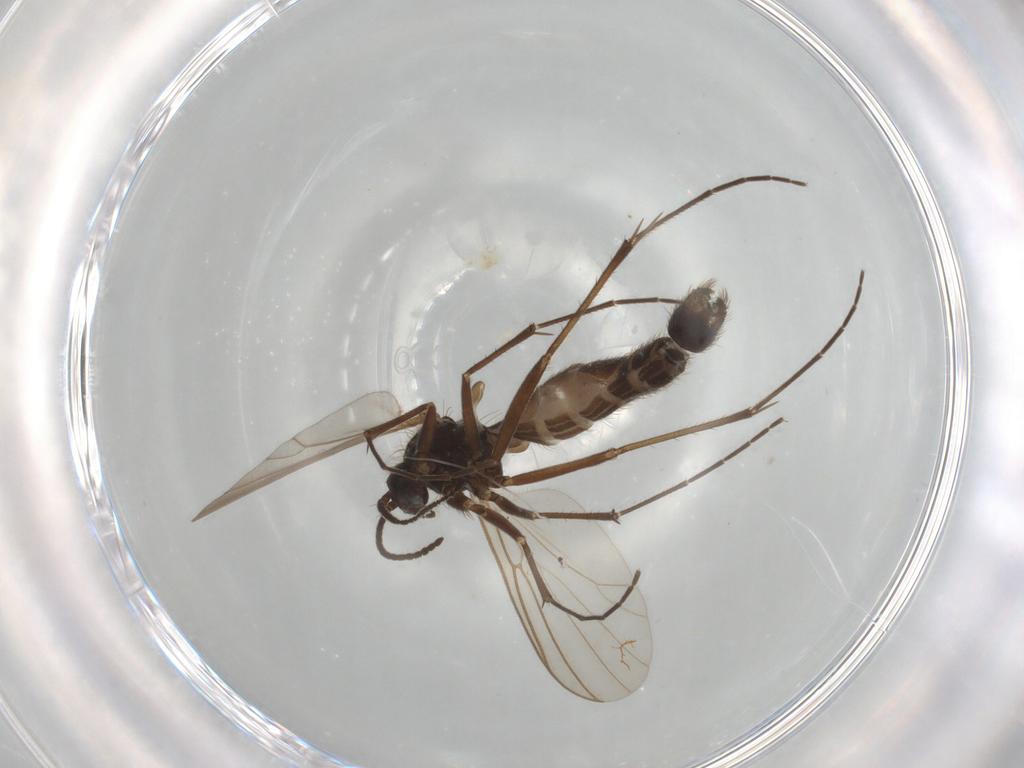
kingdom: Animalia
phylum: Arthropoda
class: Insecta
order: Diptera
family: Mycetophilidae
